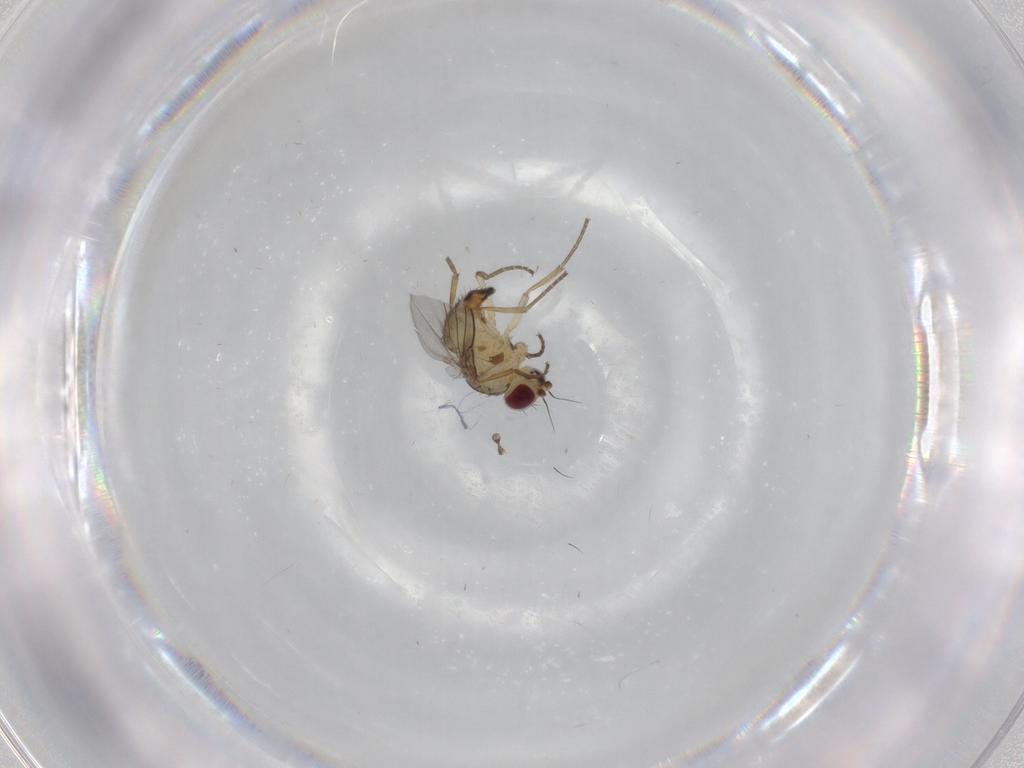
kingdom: Animalia
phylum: Arthropoda
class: Insecta
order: Diptera
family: Agromyzidae
